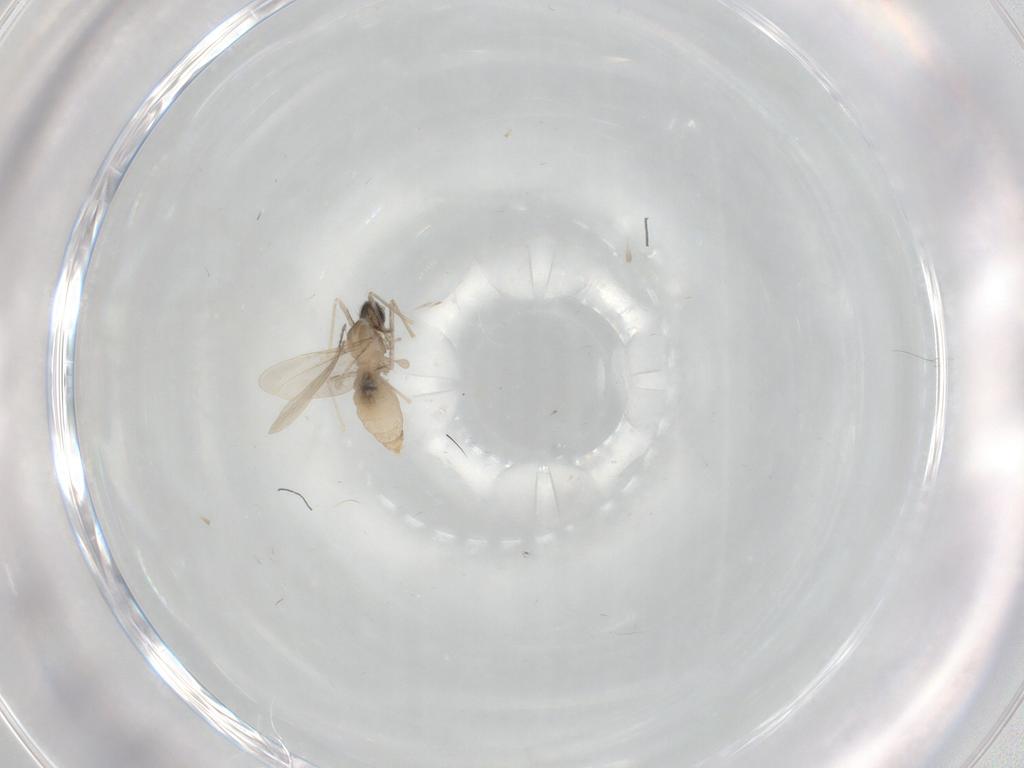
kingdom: Animalia
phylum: Arthropoda
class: Insecta
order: Diptera
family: Cecidomyiidae
